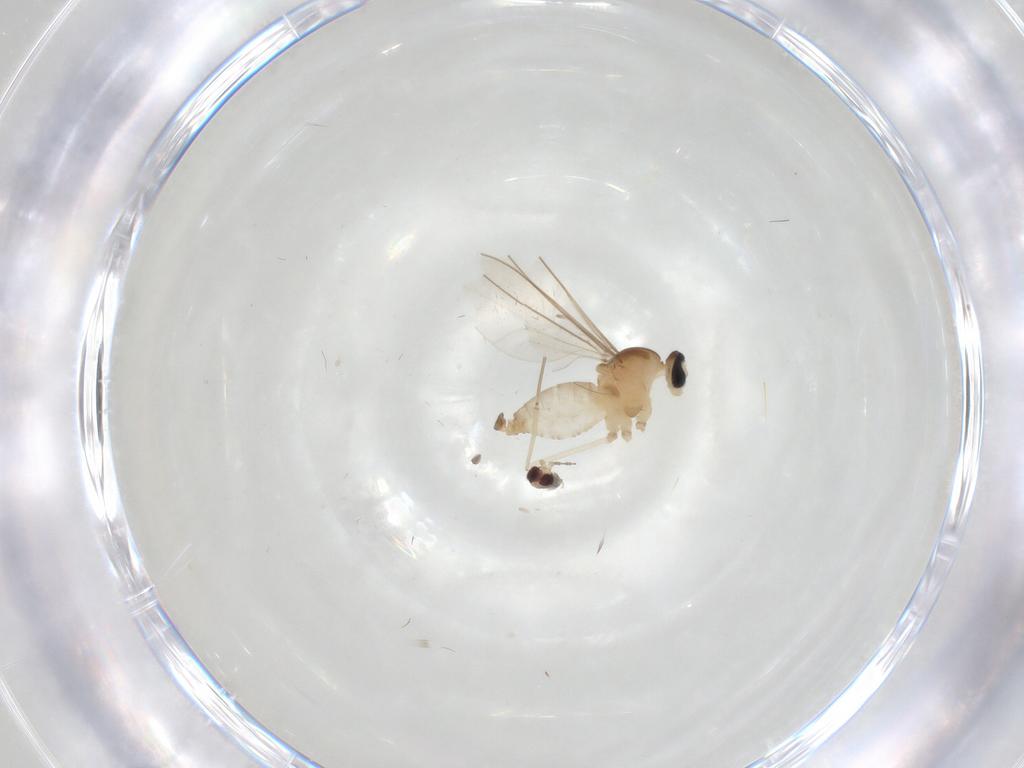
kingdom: Animalia
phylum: Arthropoda
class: Insecta
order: Diptera
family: Cecidomyiidae
